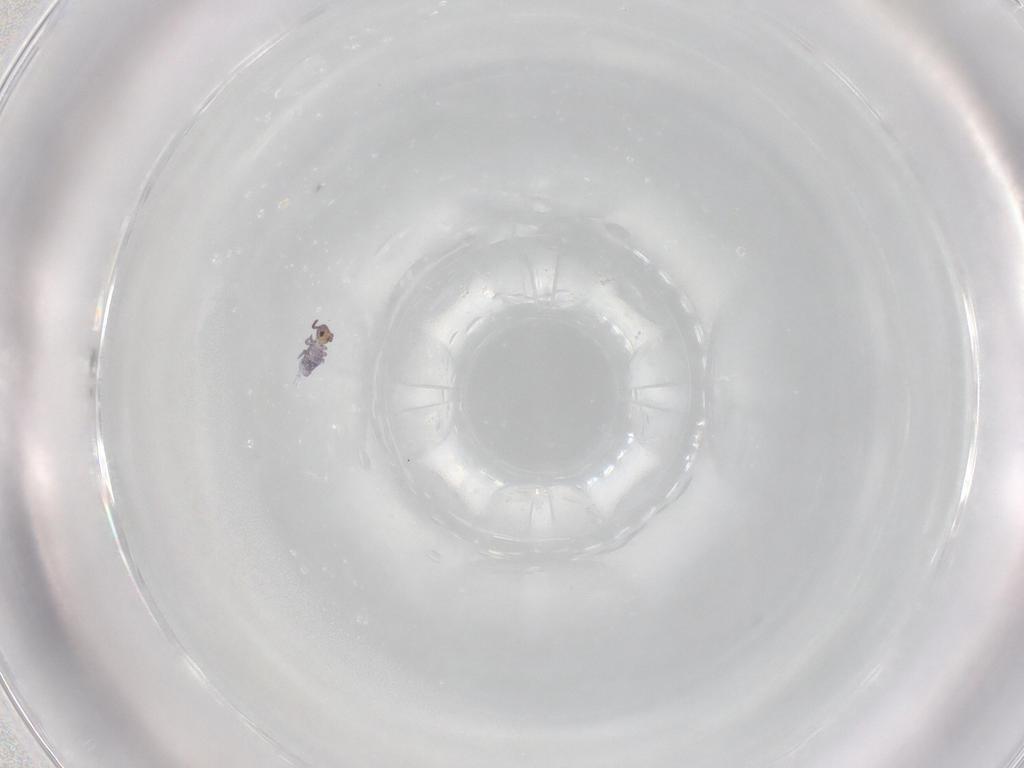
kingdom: Animalia
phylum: Arthropoda
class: Collembola
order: Symphypleona
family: Bourletiellidae
